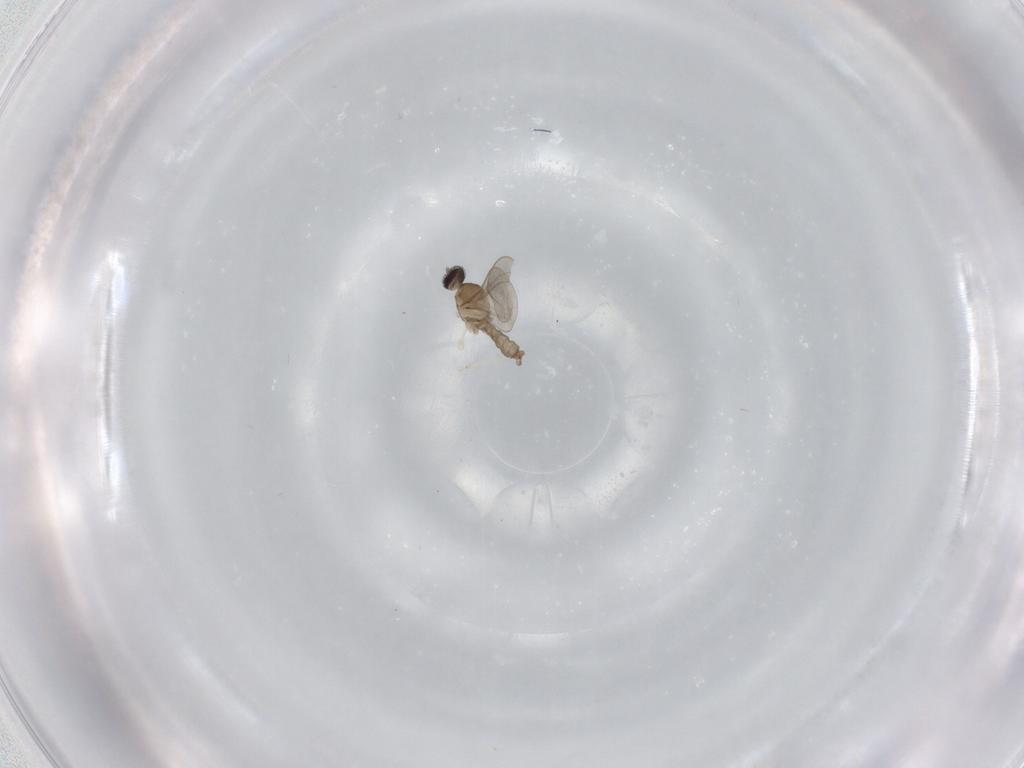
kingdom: Animalia
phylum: Arthropoda
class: Insecta
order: Diptera
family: Cecidomyiidae
